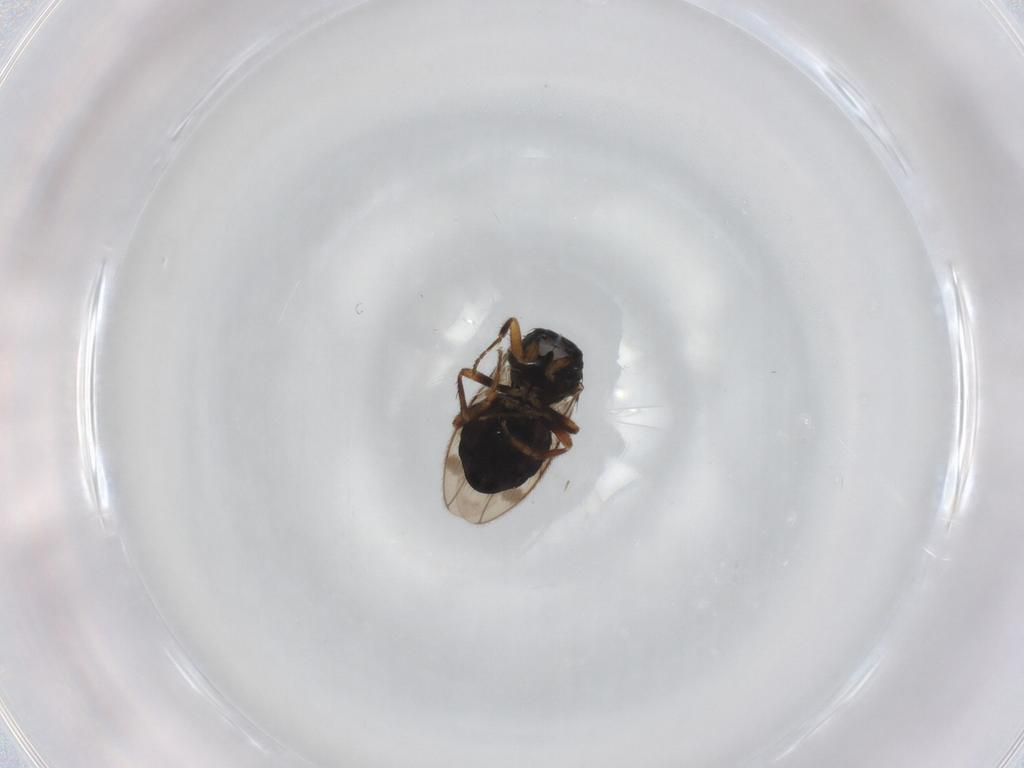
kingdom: Animalia
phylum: Arthropoda
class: Insecta
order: Diptera
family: Sphaeroceridae
